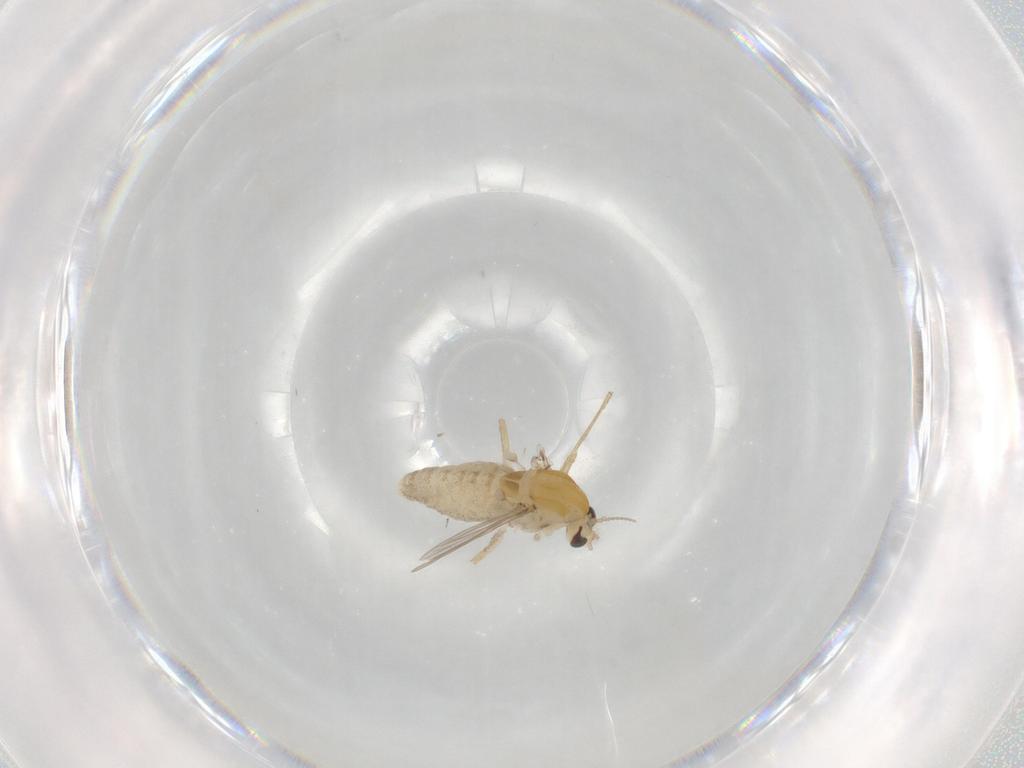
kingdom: Animalia
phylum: Arthropoda
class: Insecta
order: Diptera
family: Chironomidae
